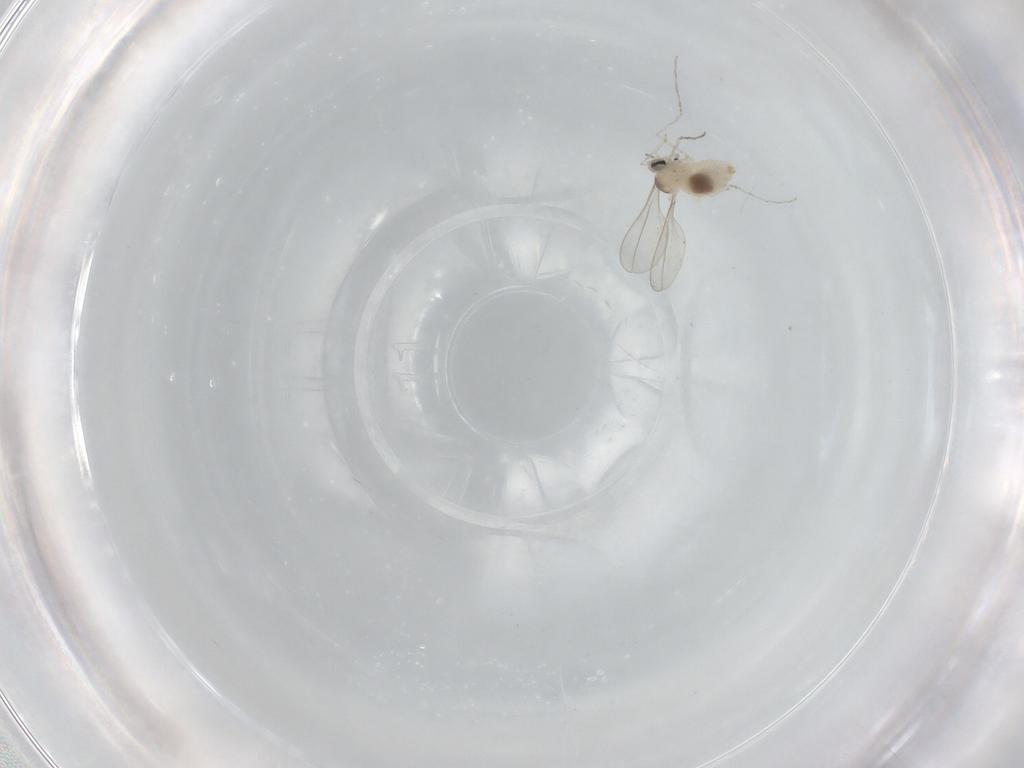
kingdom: Animalia
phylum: Arthropoda
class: Insecta
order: Diptera
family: Cecidomyiidae
